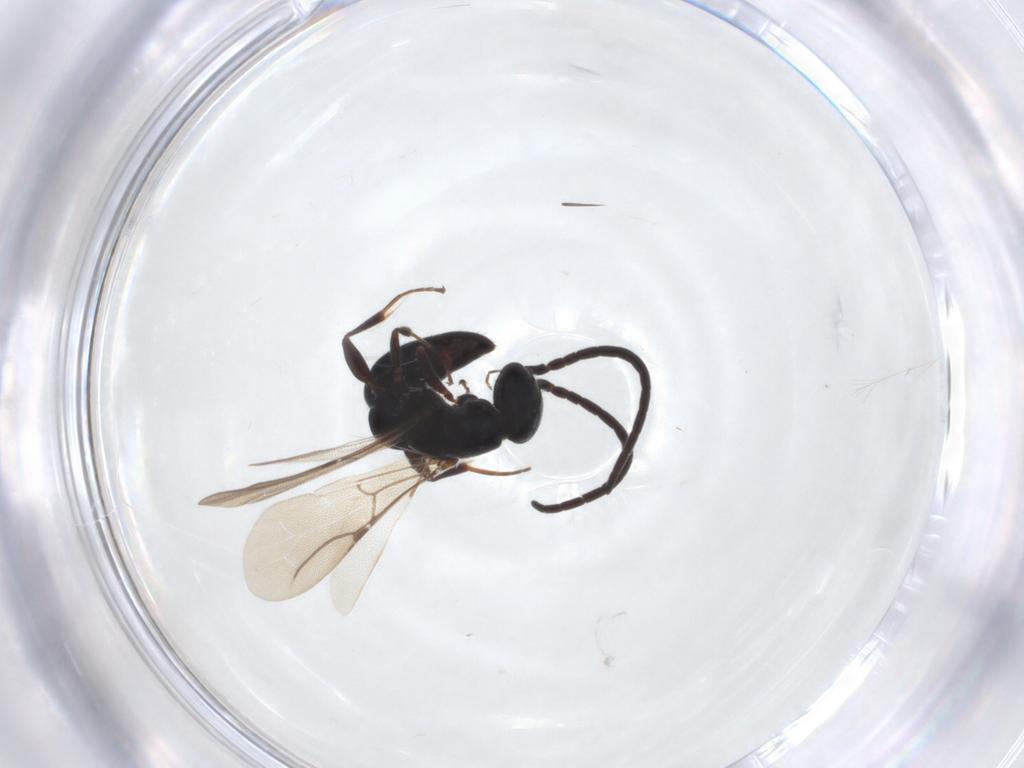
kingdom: Animalia
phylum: Arthropoda
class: Insecta
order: Hymenoptera
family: Bethylidae
